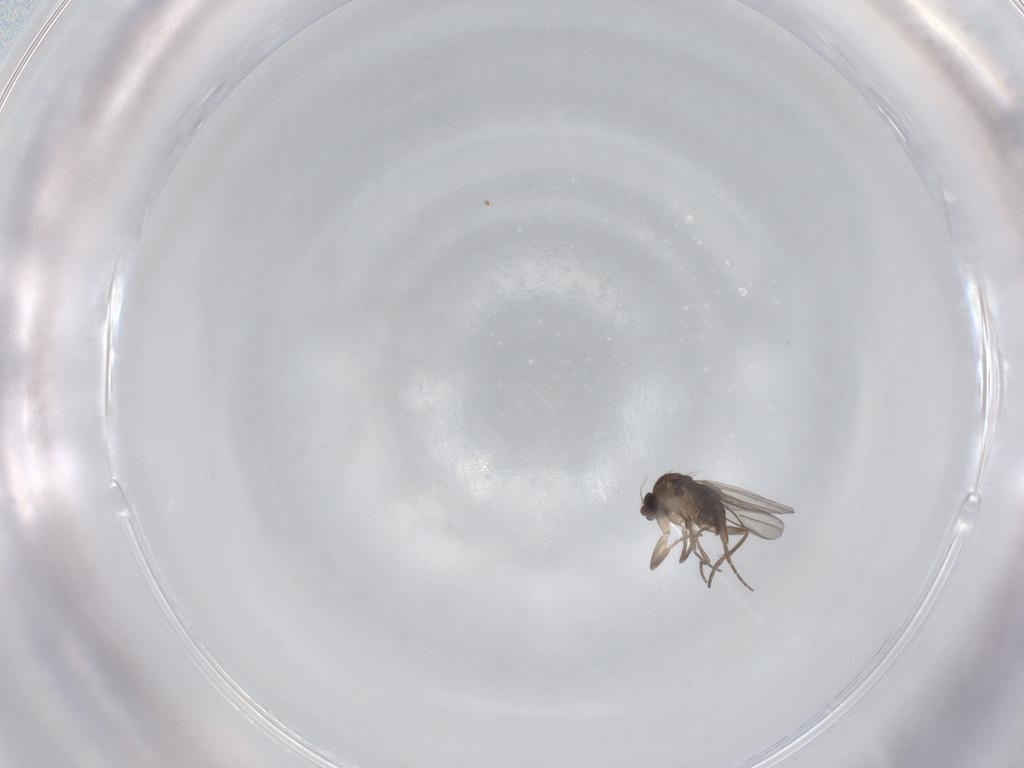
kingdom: Animalia
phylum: Arthropoda
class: Insecta
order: Diptera
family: Phoridae
